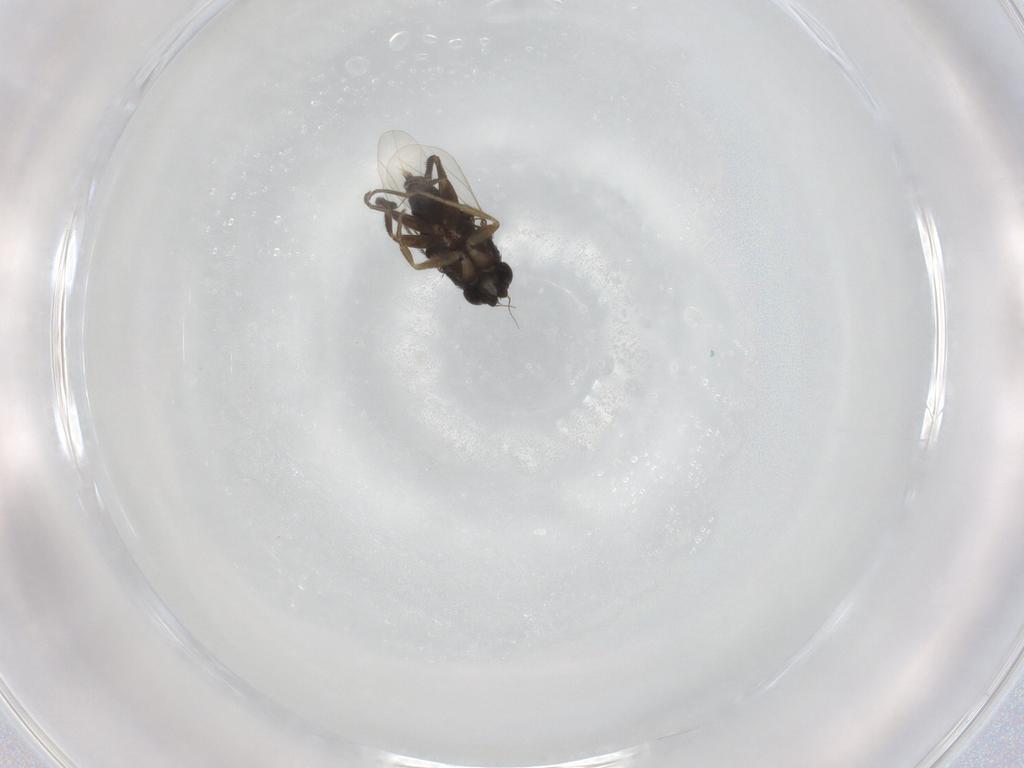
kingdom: Animalia
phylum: Arthropoda
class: Insecta
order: Diptera
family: Phoridae
